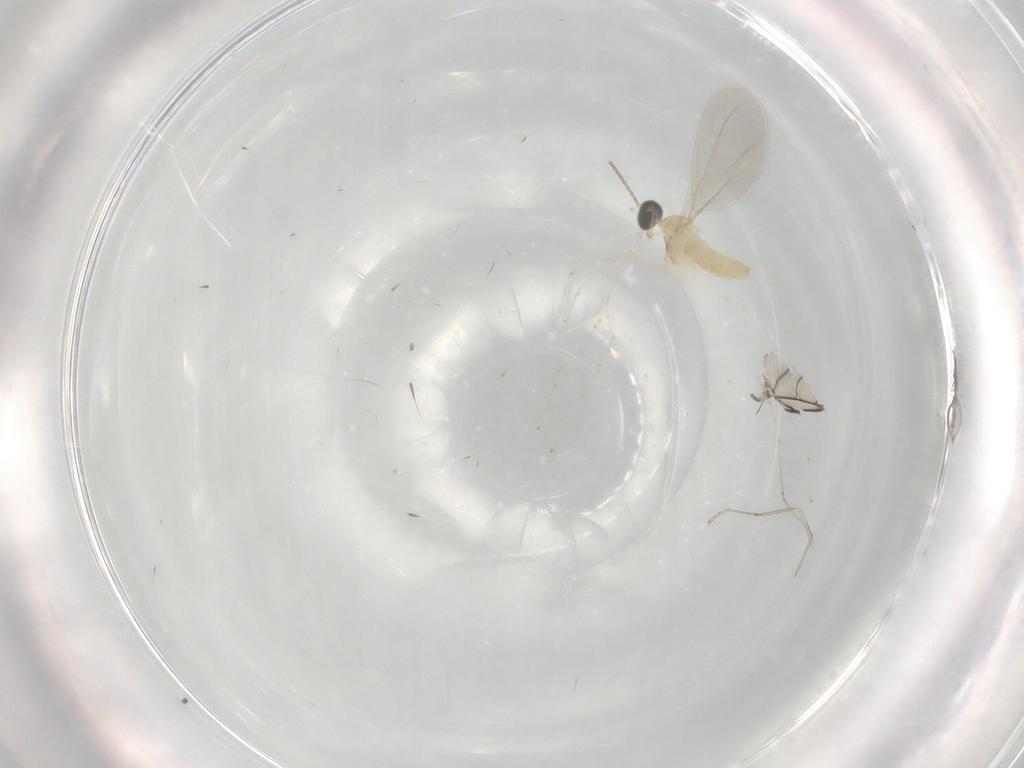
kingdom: Animalia
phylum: Arthropoda
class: Insecta
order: Diptera
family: Cecidomyiidae
